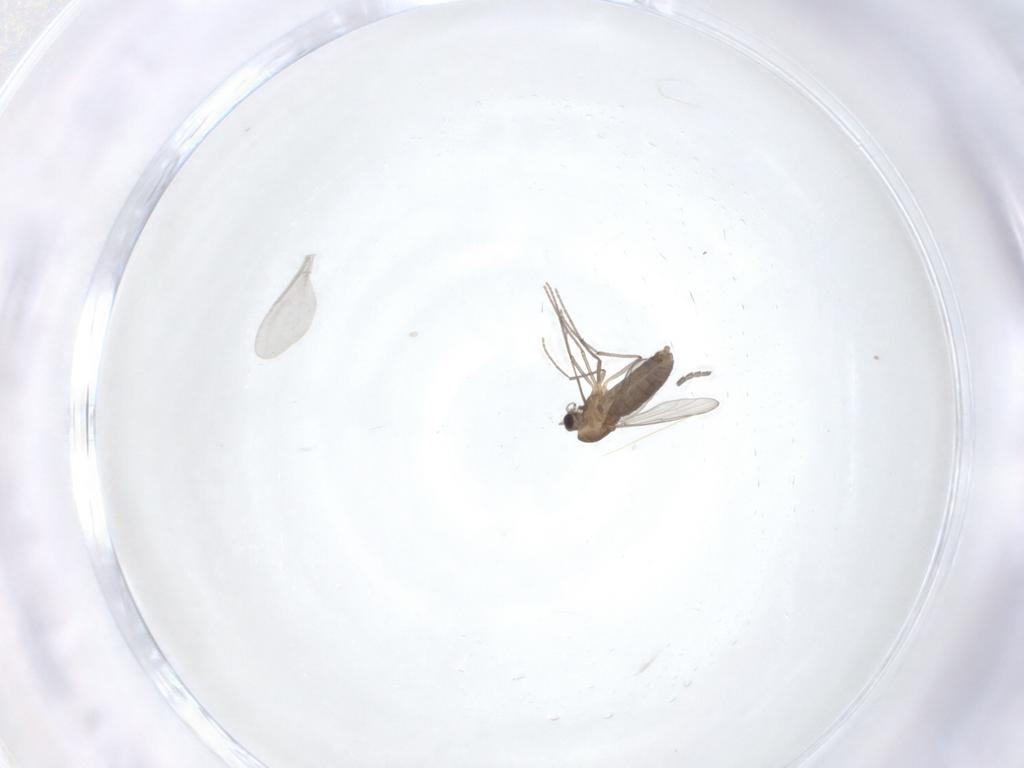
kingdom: Animalia
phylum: Arthropoda
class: Insecta
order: Diptera
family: Chironomidae
